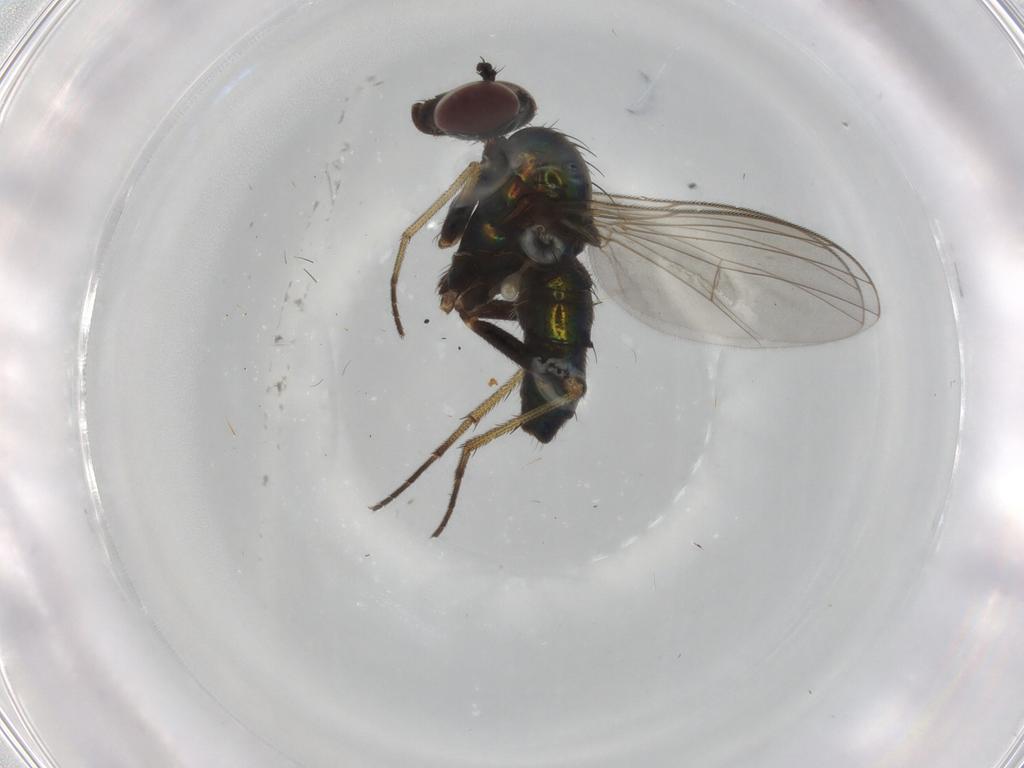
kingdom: Animalia
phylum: Arthropoda
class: Insecta
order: Diptera
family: Dolichopodidae
